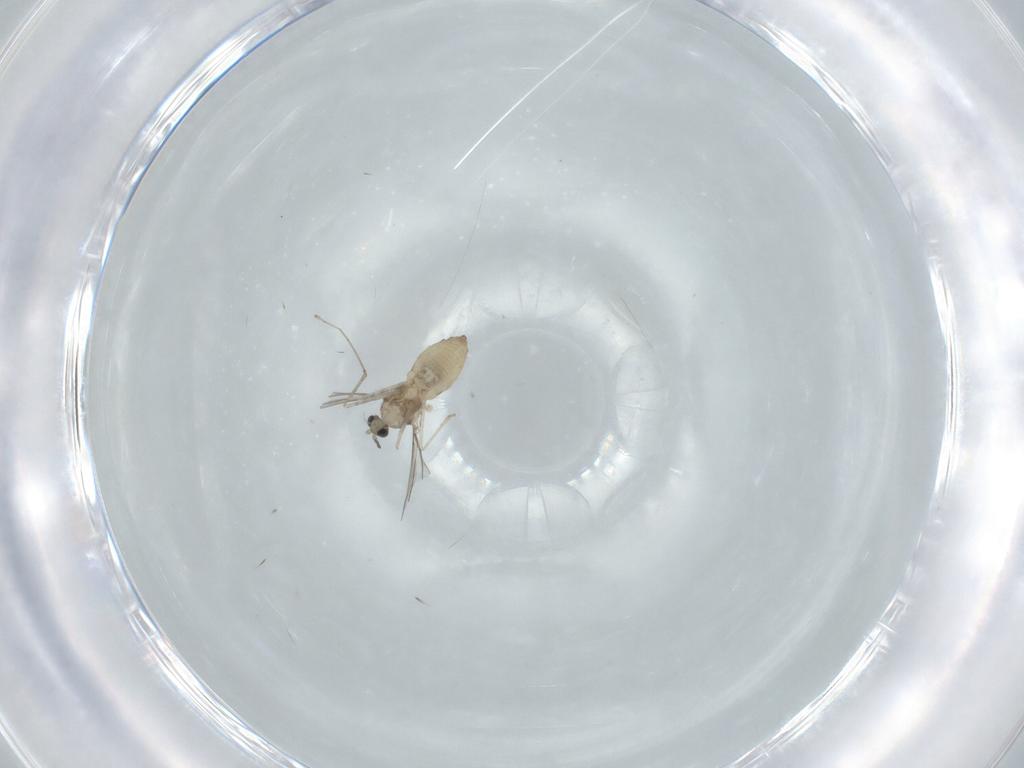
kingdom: Animalia
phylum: Arthropoda
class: Insecta
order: Diptera
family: Cecidomyiidae
